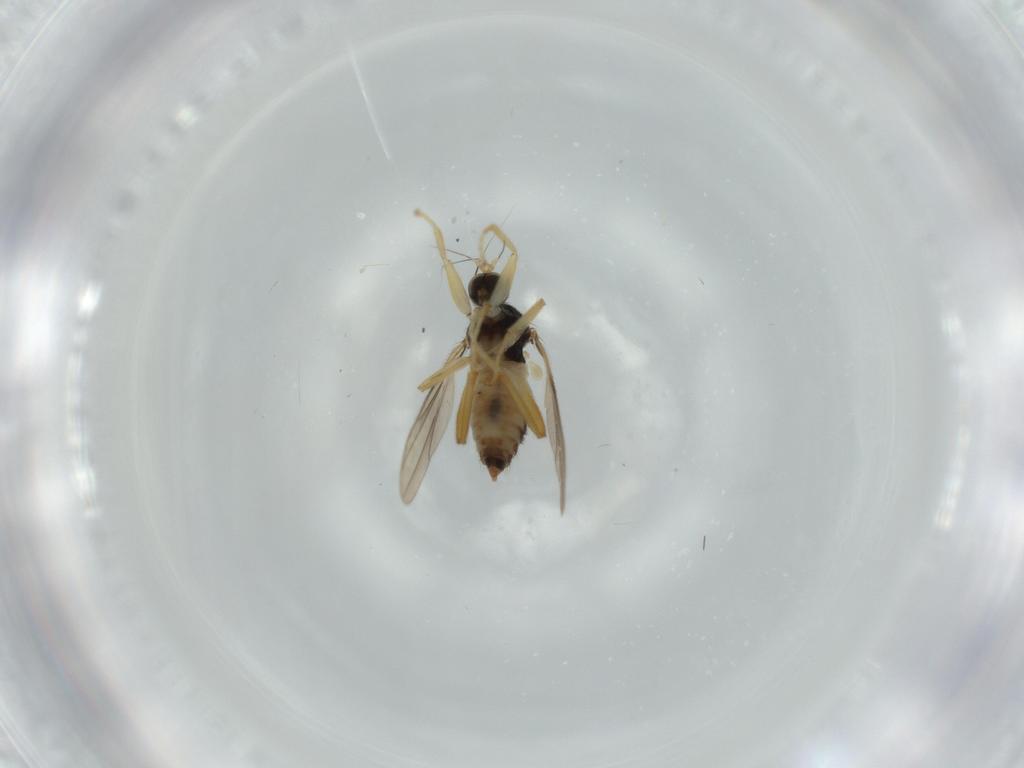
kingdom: Animalia
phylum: Arthropoda
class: Insecta
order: Diptera
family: Hybotidae
